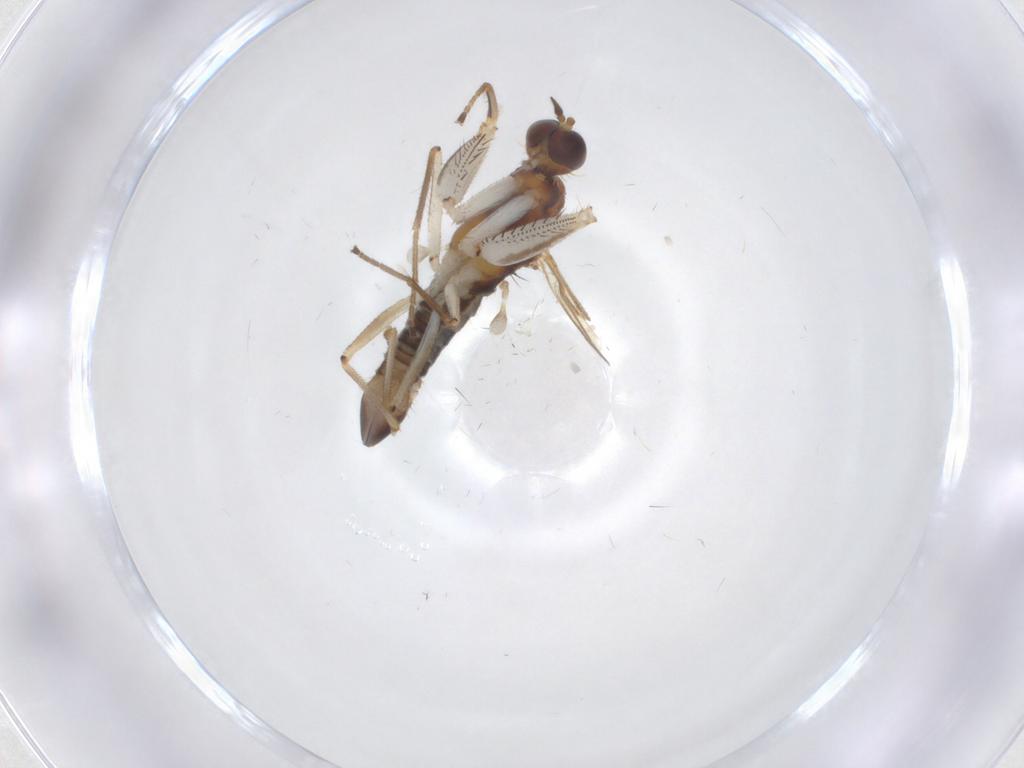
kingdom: Animalia
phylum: Arthropoda
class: Insecta
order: Diptera
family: Empididae
